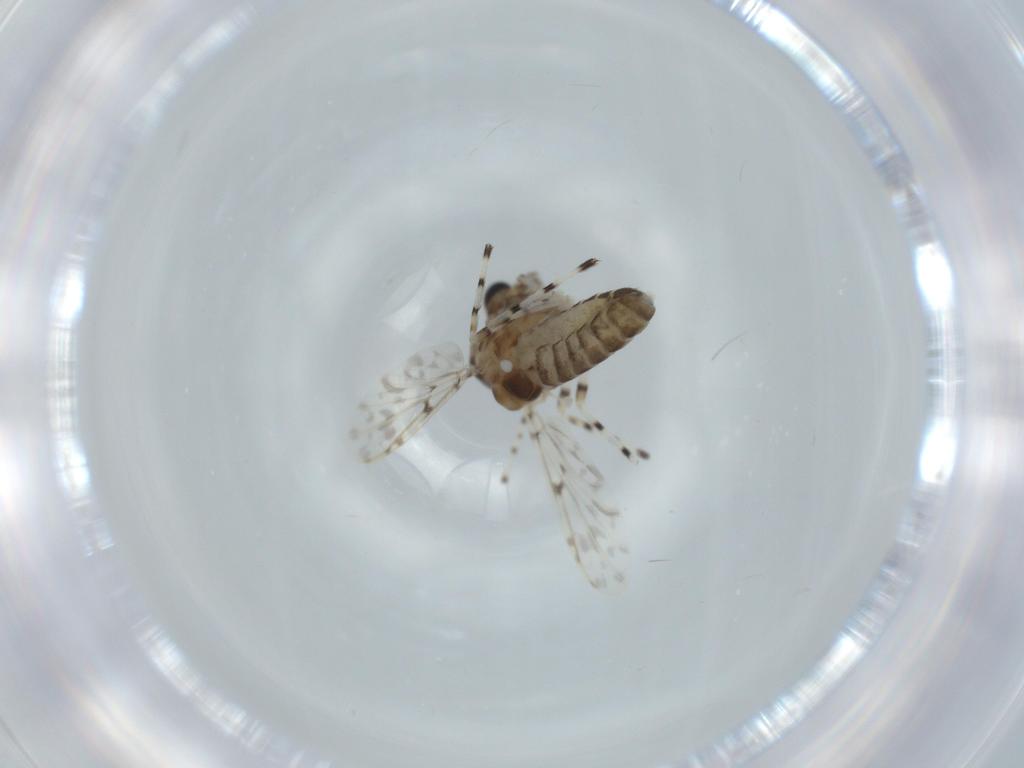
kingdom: Animalia
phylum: Arthropoda
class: Insecta
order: Diptera
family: Chironomidae
